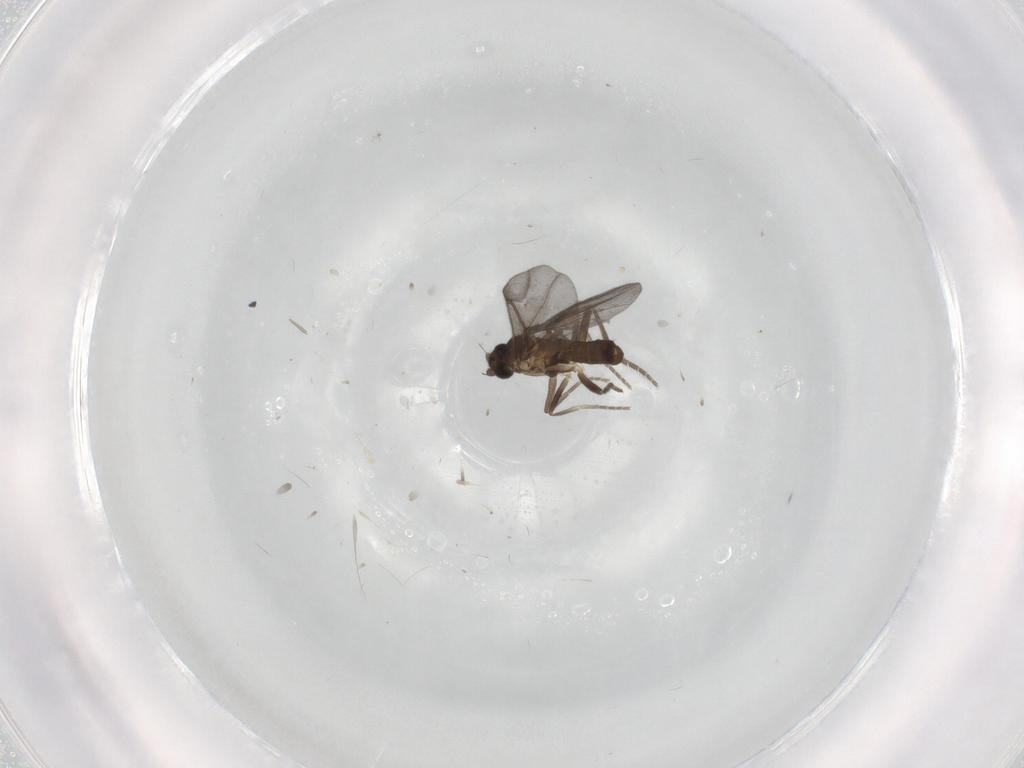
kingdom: Animalia
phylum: Arthropoda
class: Insecta
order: Diptera
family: Phoridae
